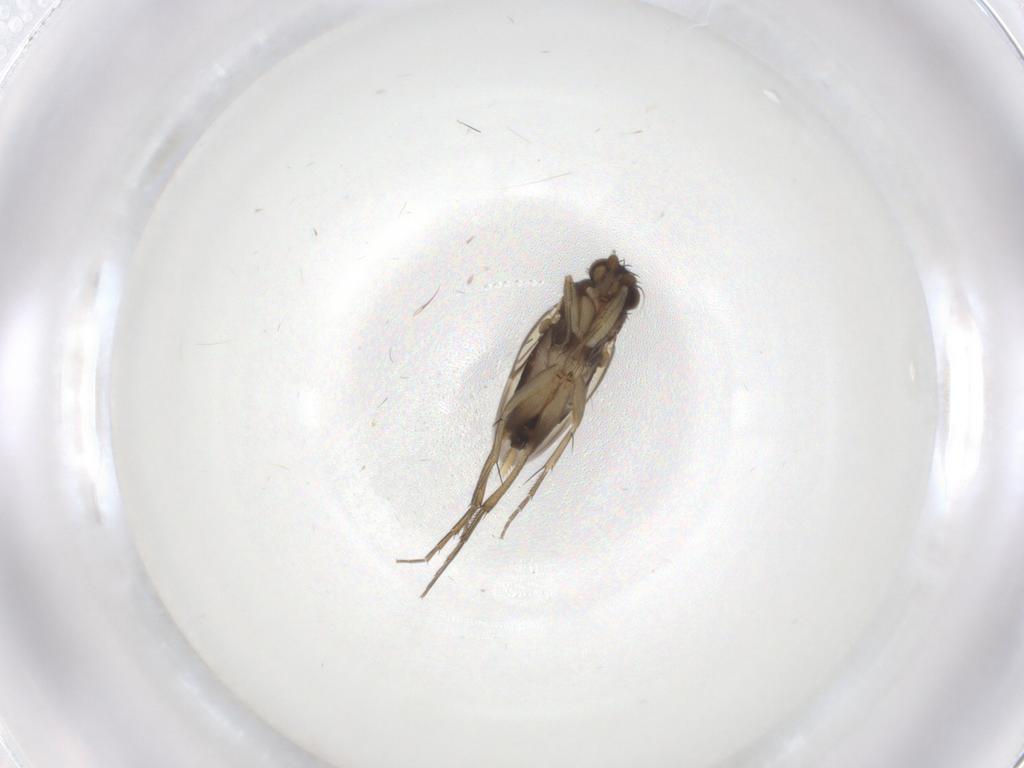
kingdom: Animalia
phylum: Arthropoda
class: Insecta
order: Diptera
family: Phoridae
